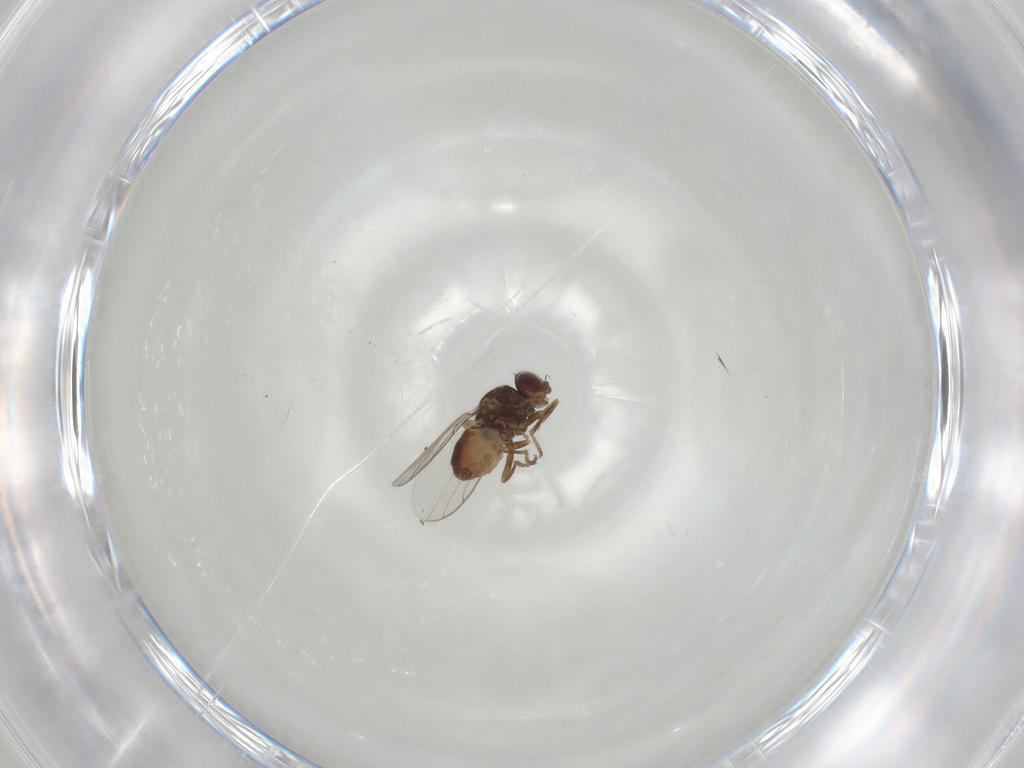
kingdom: Animalia
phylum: Arthropoda
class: Insecta
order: Diptera
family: Chloropidae
